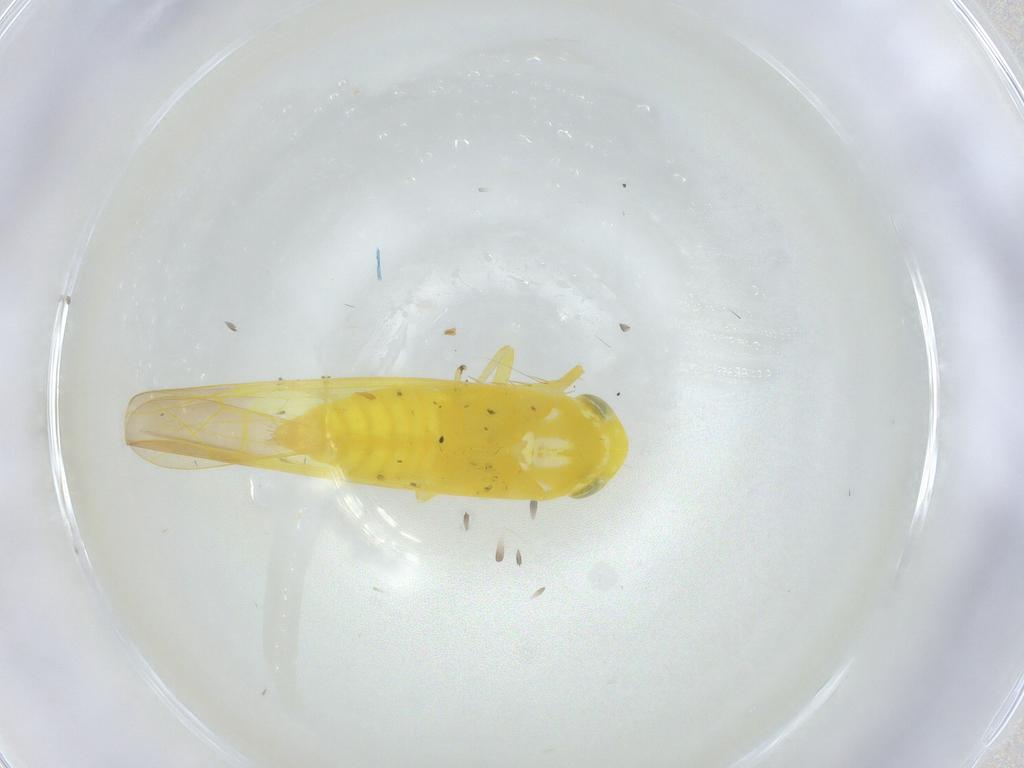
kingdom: Animalia
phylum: Arthropoda
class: Insecta
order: Hemiptera
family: Cicadellidae
